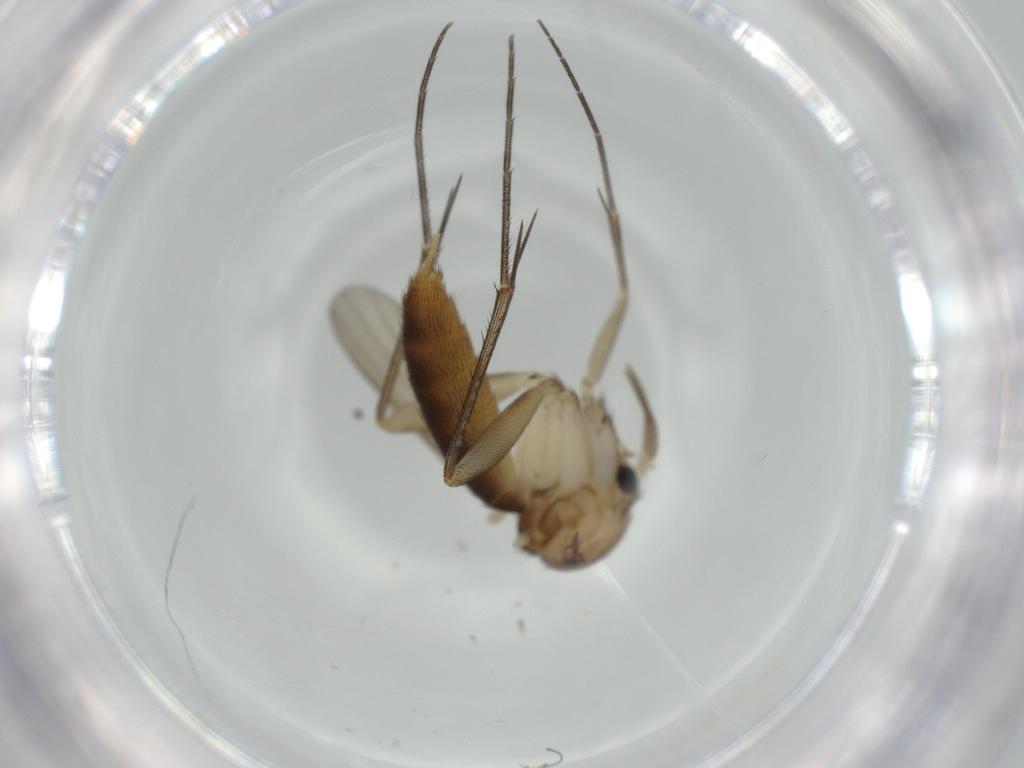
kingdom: Animalia
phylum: Arthropoda
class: Insecta
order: Diptera
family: Mycetophilidae
